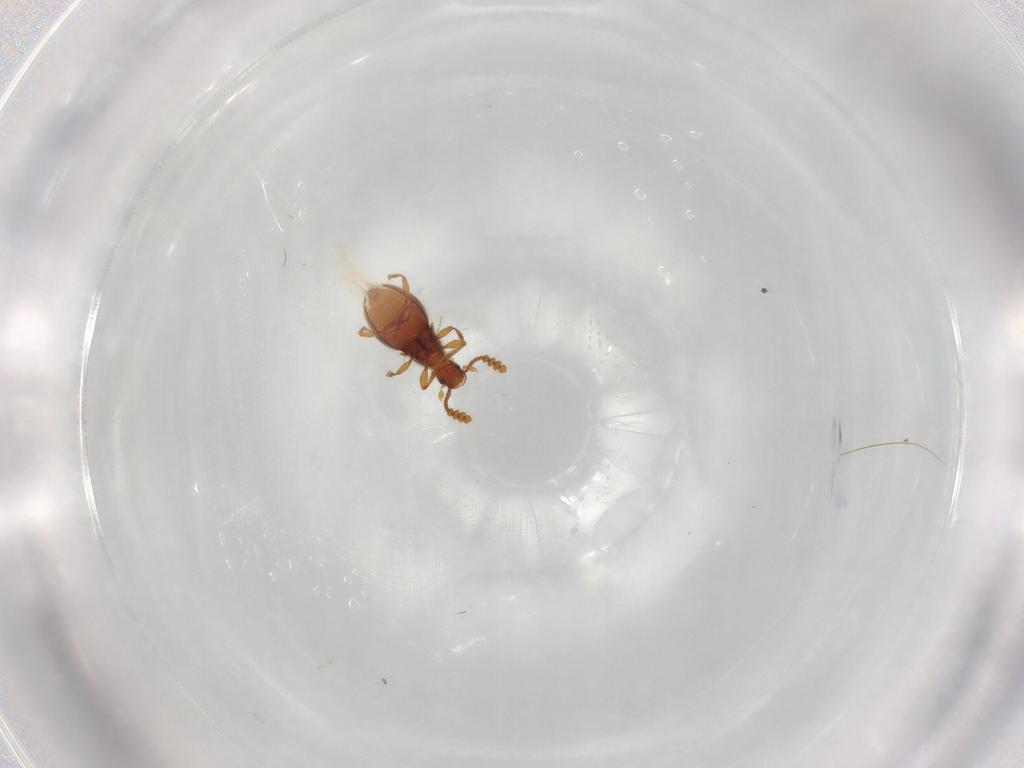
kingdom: Animalia
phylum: Arthropoda
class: Insecta
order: Coleoptera
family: Staphylinidae
